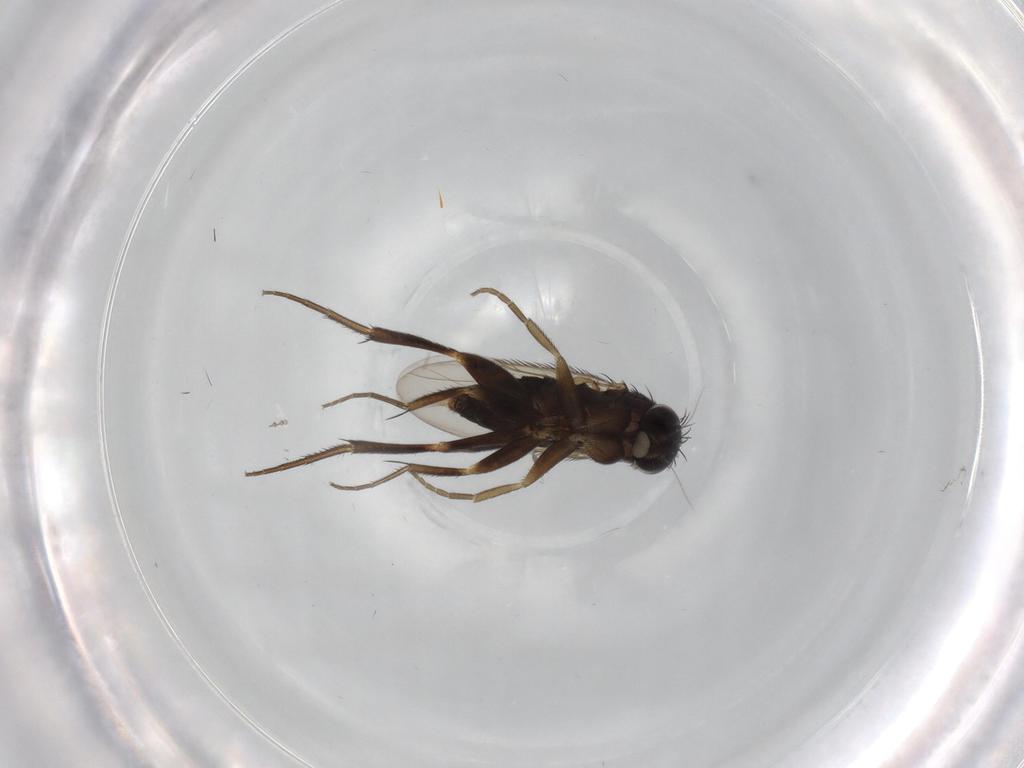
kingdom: Animalia
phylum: Arthropoda
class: Insecta
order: Diptera
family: Phoridae
